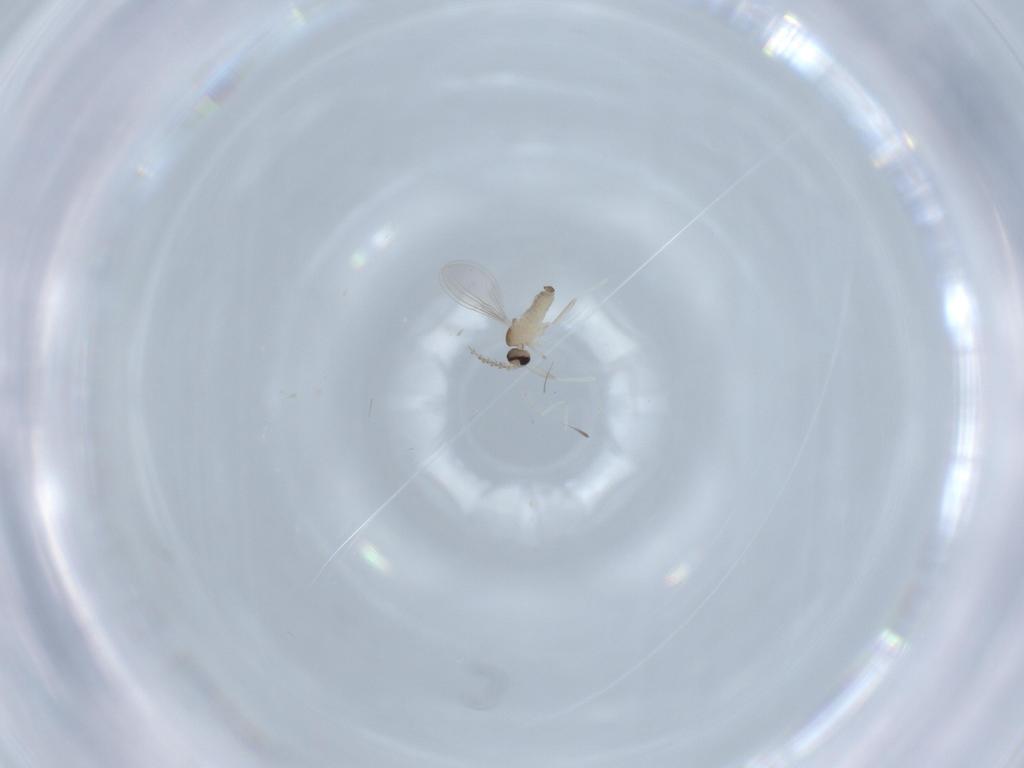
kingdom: Animalia
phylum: Arthropoda
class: Insecta
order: Diptera
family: Cecidomyiidae
